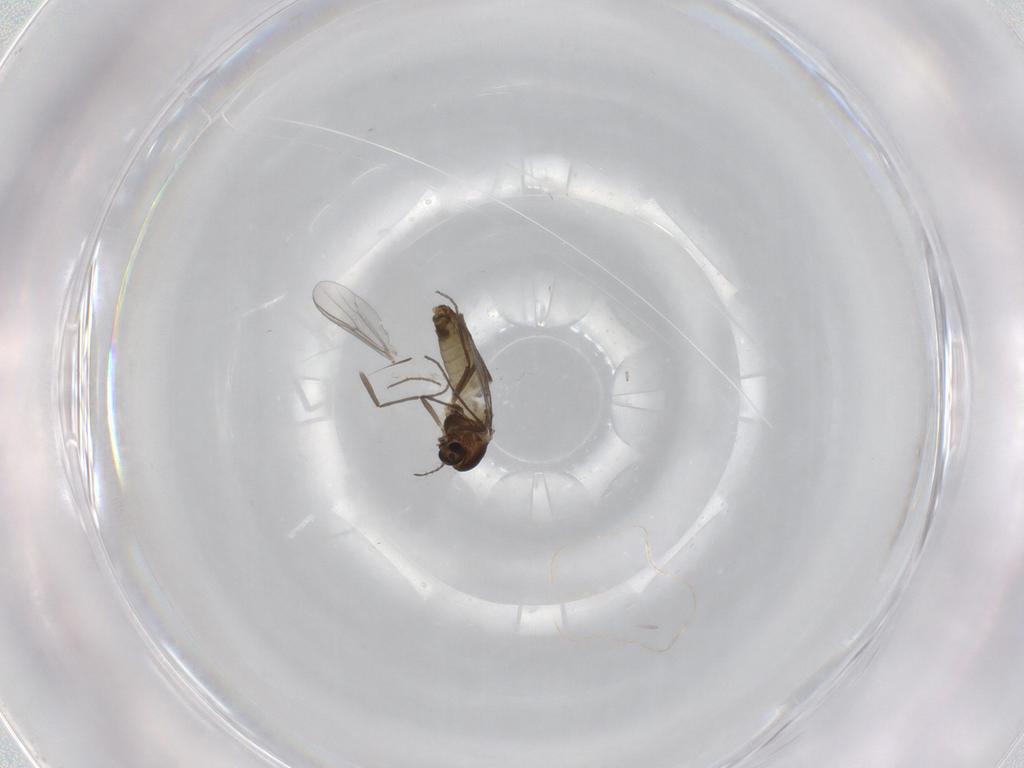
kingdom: Animalia
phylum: Arthropoda
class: Insecta
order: Diptera
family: Chironomidae
